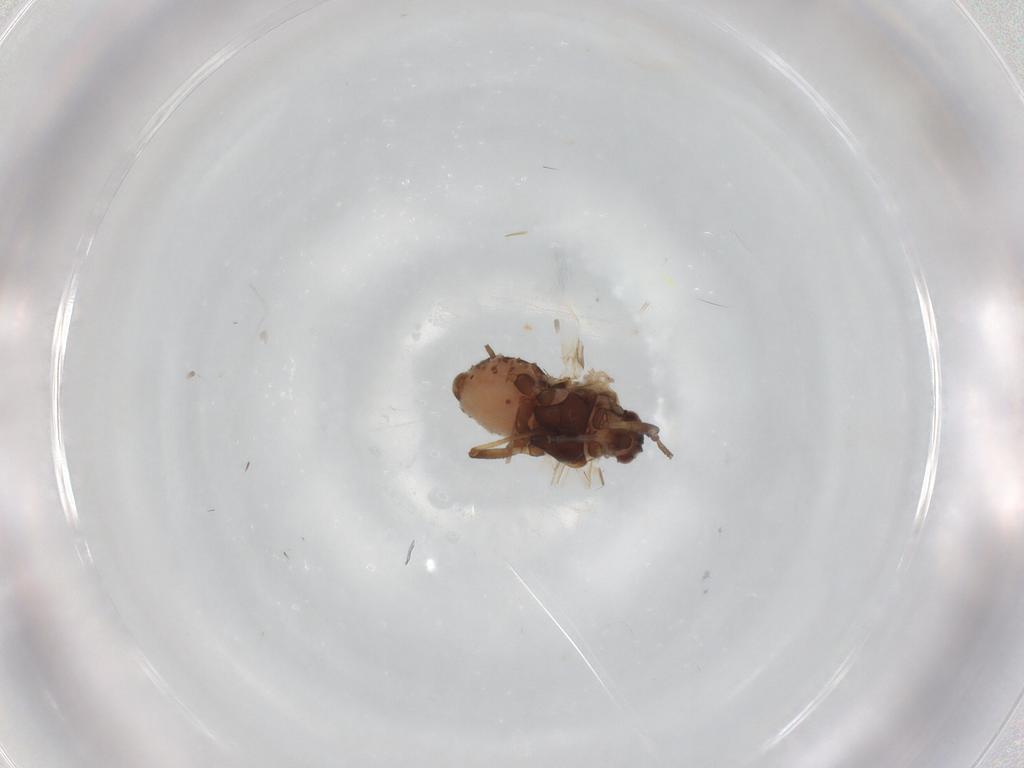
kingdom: Animalia
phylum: Arthropoda
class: Insecta
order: Hemiptera
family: Aphididae
